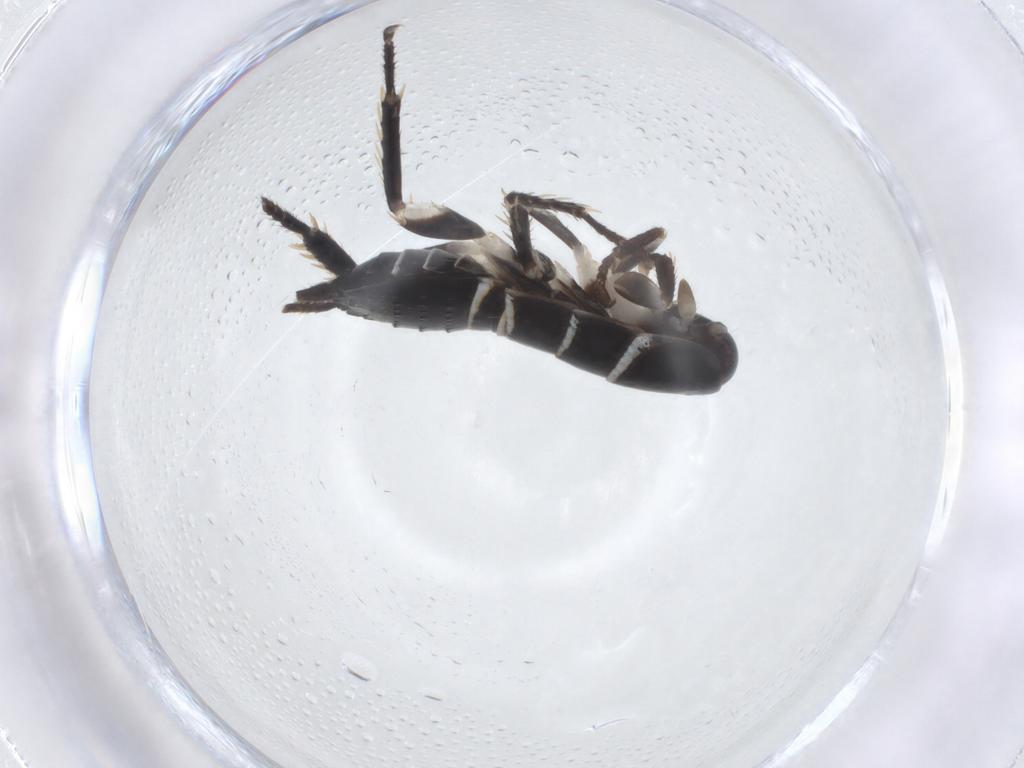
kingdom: Animalia
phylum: Arthropoda
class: Insecta
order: Blattodea
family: Ectobiidae
